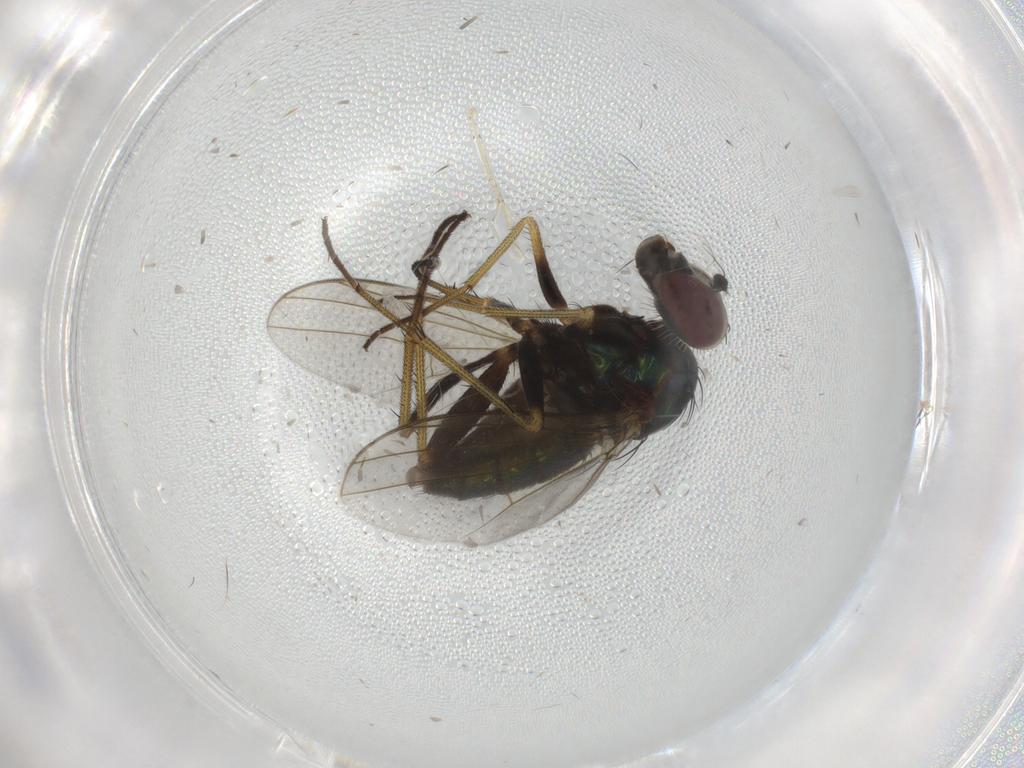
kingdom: Animalia
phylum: Arthropoda
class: Insecta
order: Diptera
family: Dolichopodidae
